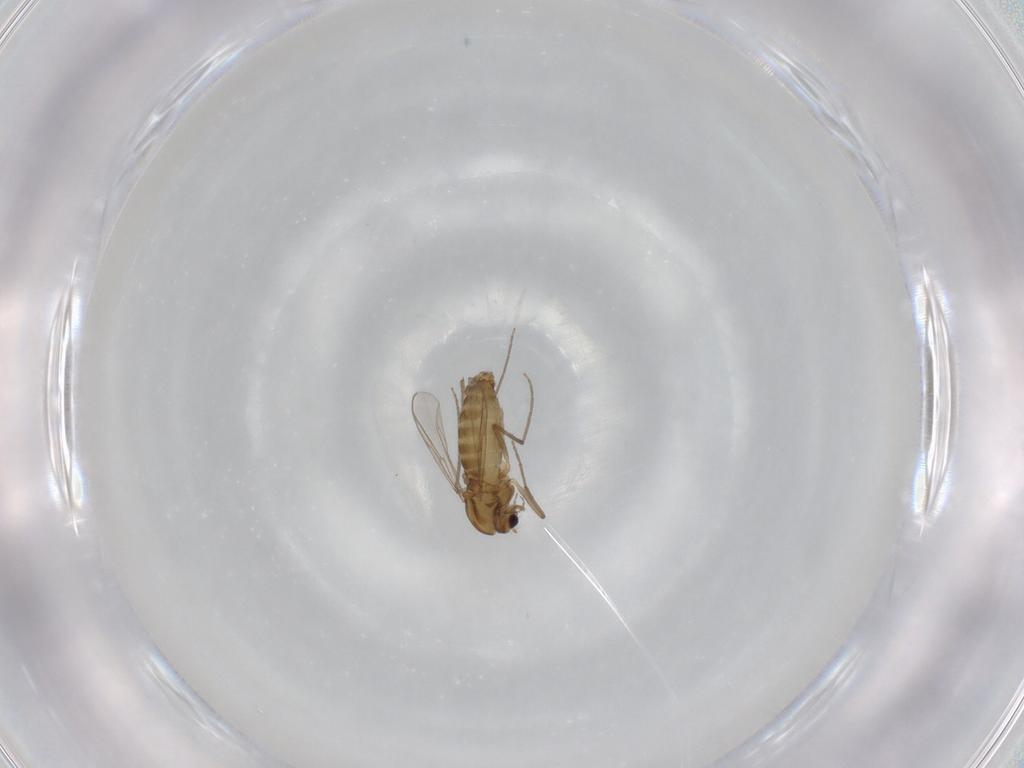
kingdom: Animalia
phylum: Arthropoda
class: Insecta
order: Diptera
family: Chironomidae
